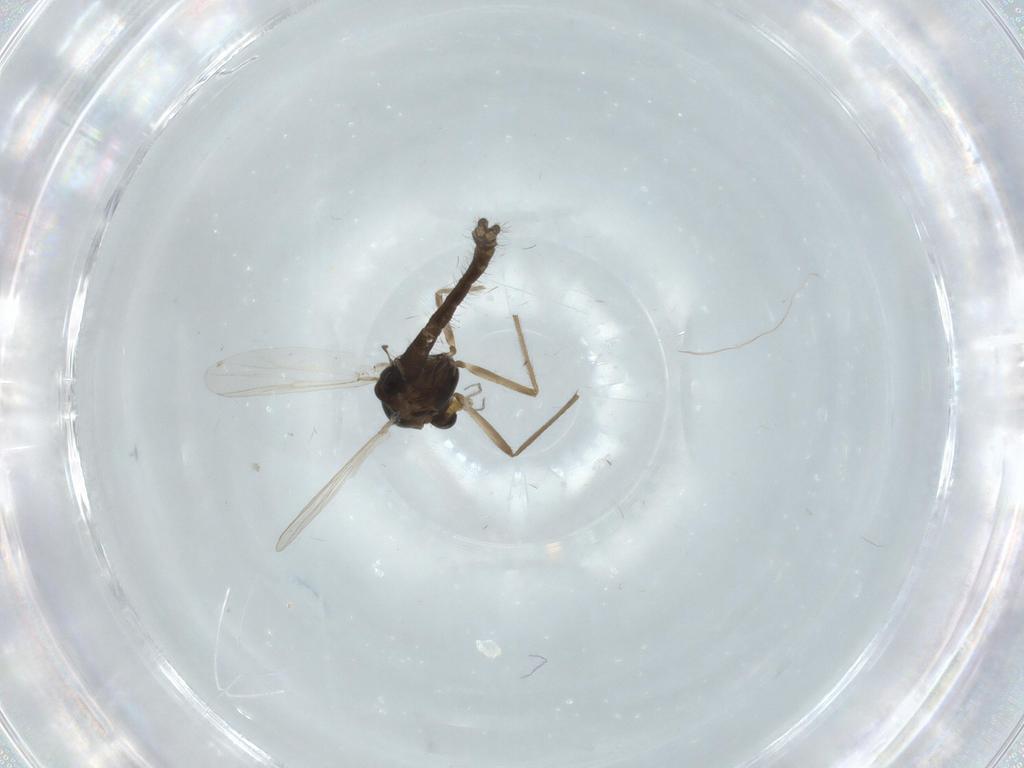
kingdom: Animalia
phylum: Arthropoda
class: Insecta
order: Diptera
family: Chironomidae
